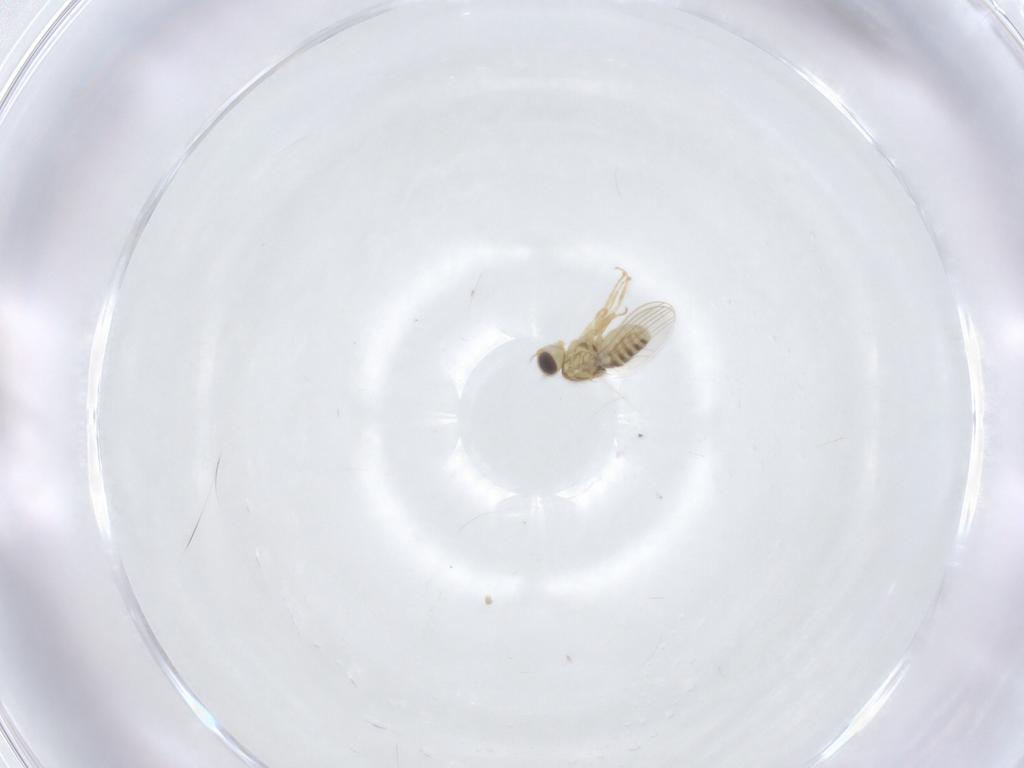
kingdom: Animalia
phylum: Arthropoda
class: Insecta
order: Diptera
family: Chyromyidae
